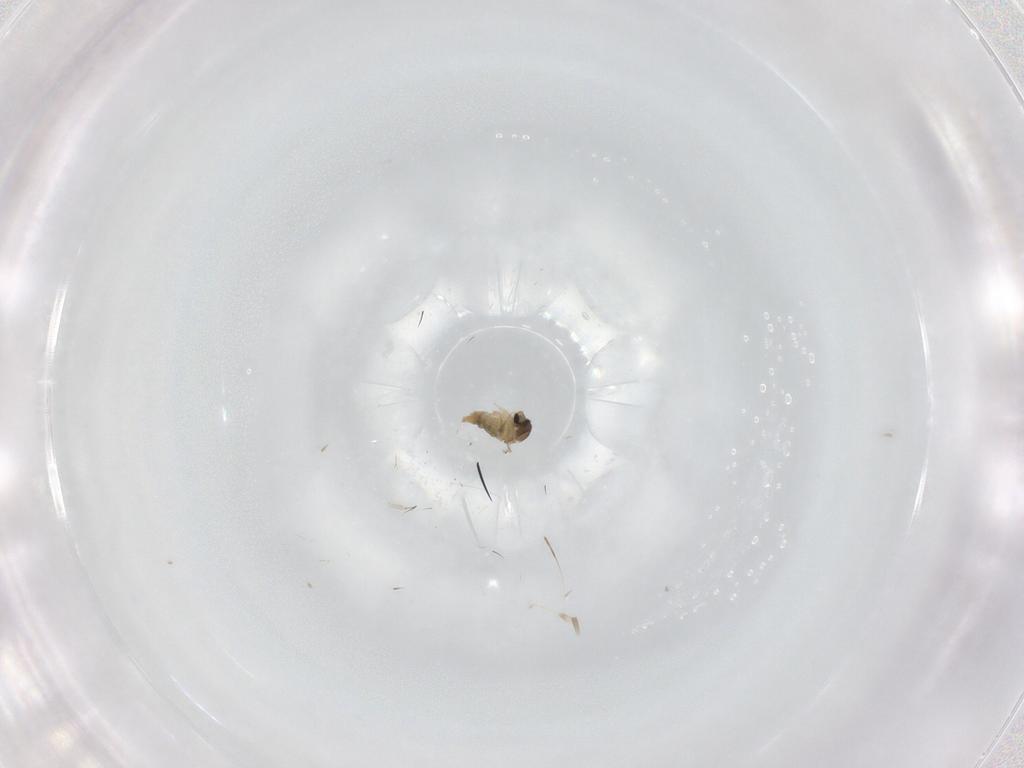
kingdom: Animalia
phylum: Arthropoda
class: Insecta
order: Diptera
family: Cecidomyiidae
